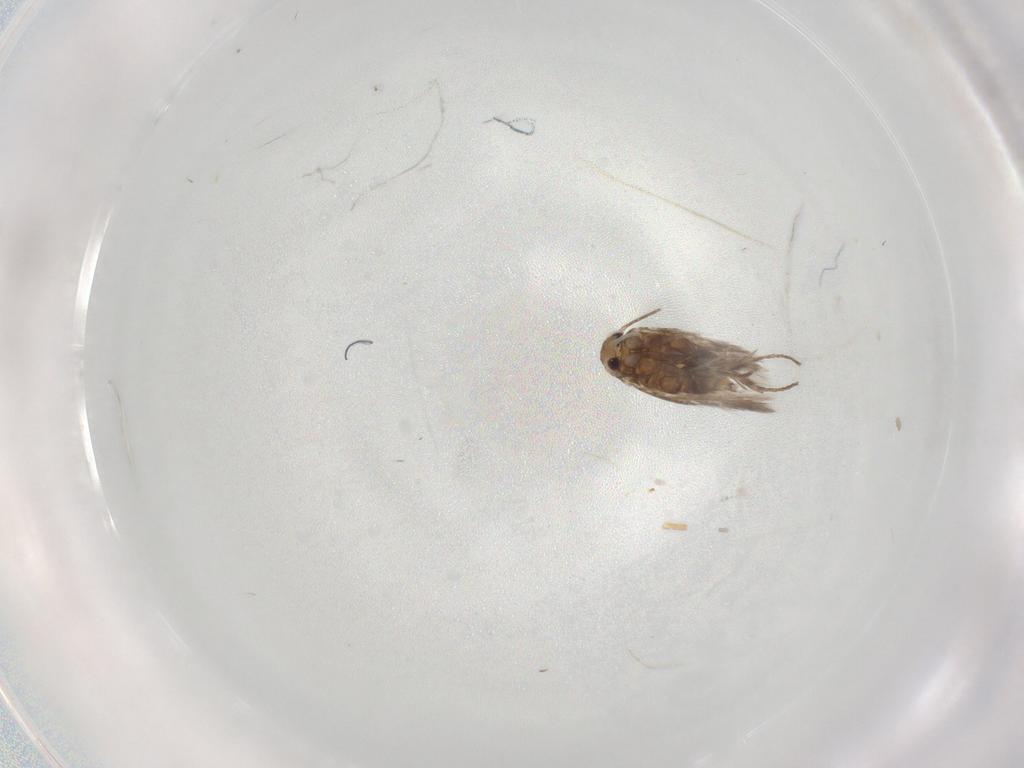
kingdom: Animalia
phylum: Arthropoda
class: Insecta
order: Lepidoptera
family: Nymphalidae
